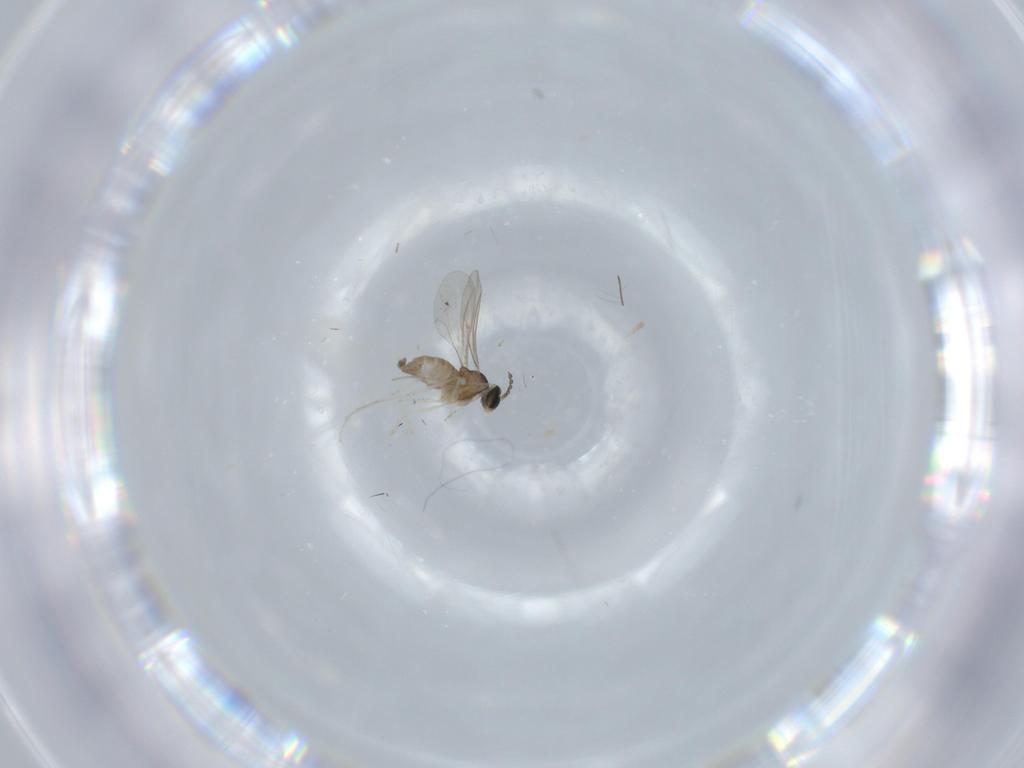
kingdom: Animalia
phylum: Arthropoda
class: Insecta
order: Diptera
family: Cecidomyiidae
